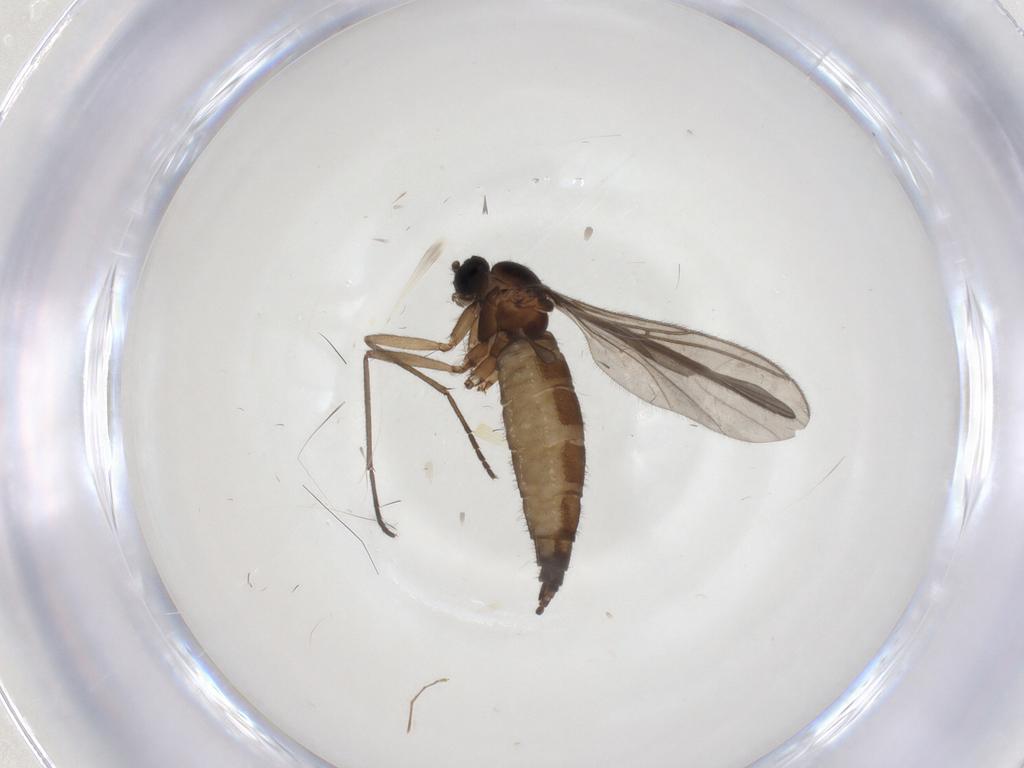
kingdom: Animalia
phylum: Arthropoda
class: Insecta
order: Diptera
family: Sciaridae
